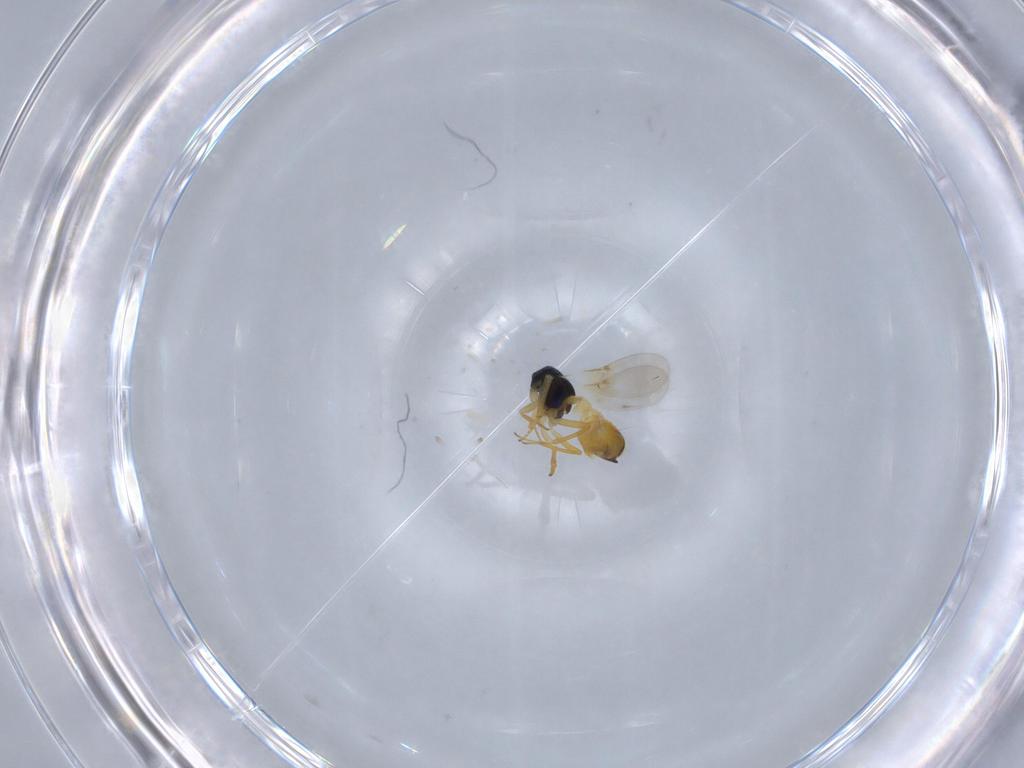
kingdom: Animalia
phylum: Arthropoda
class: Insecta
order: Hymenoptera
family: Encyrtidae
